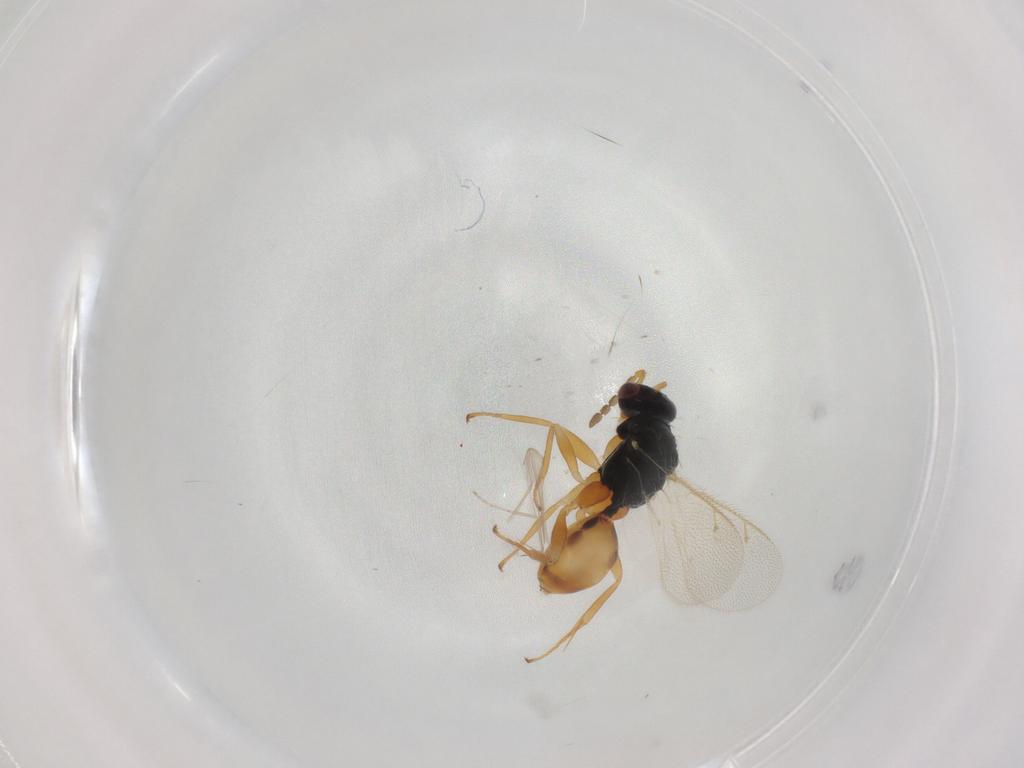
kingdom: Animalia
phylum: Arthropoda
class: Insecta
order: Hymenoptera
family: Eulophidae
